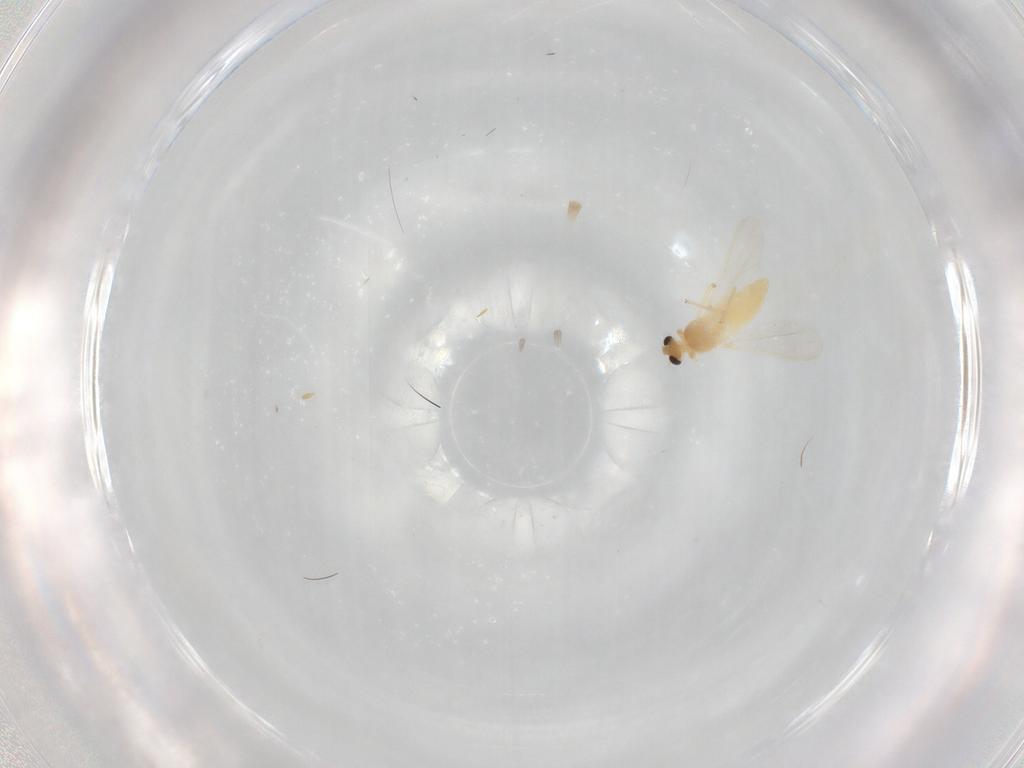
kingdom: Animalia
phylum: Arthropoda
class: Insecta
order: Diptera
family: Chironomidae
